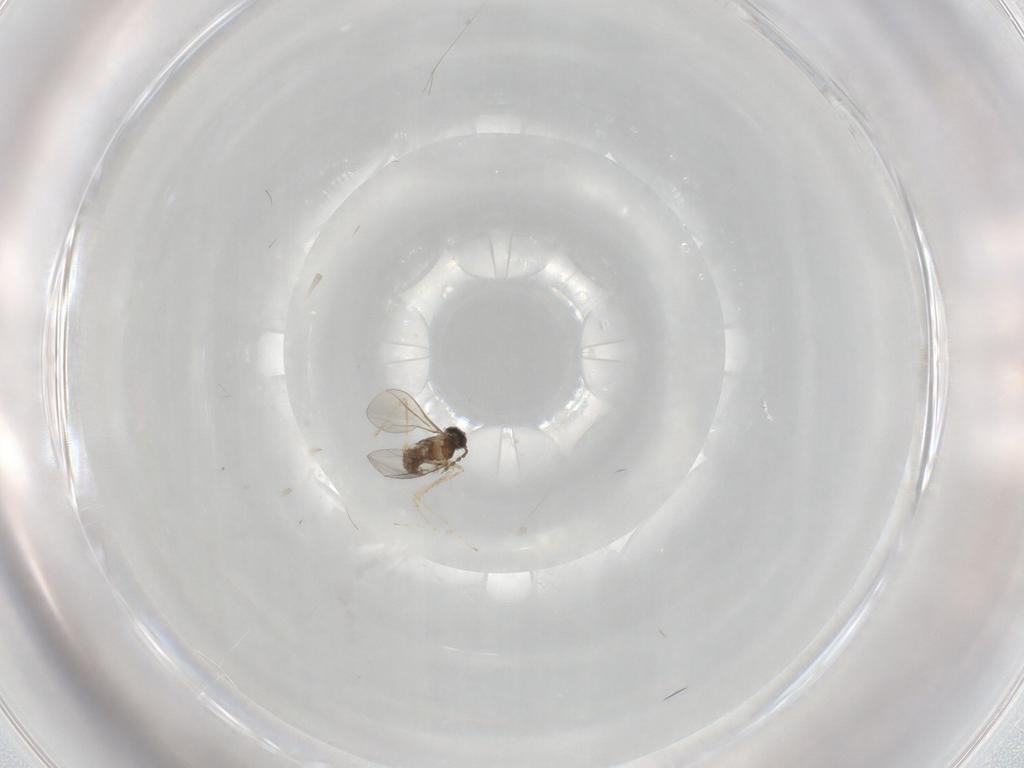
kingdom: Animalia
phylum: Arthropoda
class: Insecta
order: Diptera
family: Cecidomyiidae
